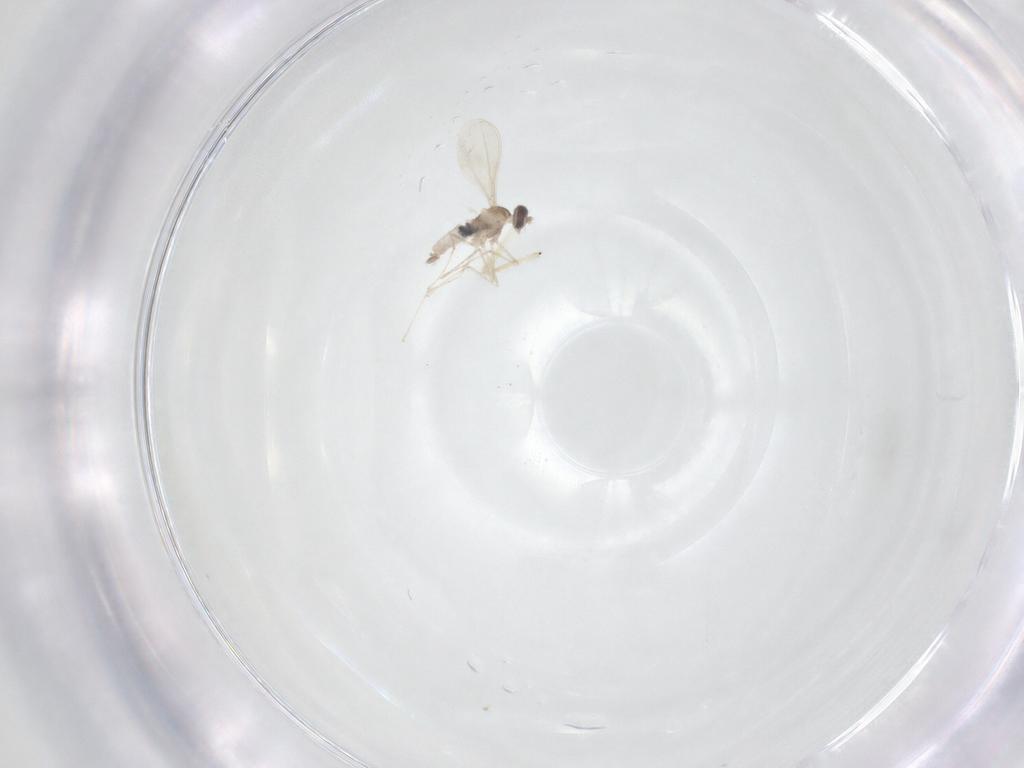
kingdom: Animalia
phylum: Arthropoda
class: Insecta
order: Diptera
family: Cecidomyiidae
